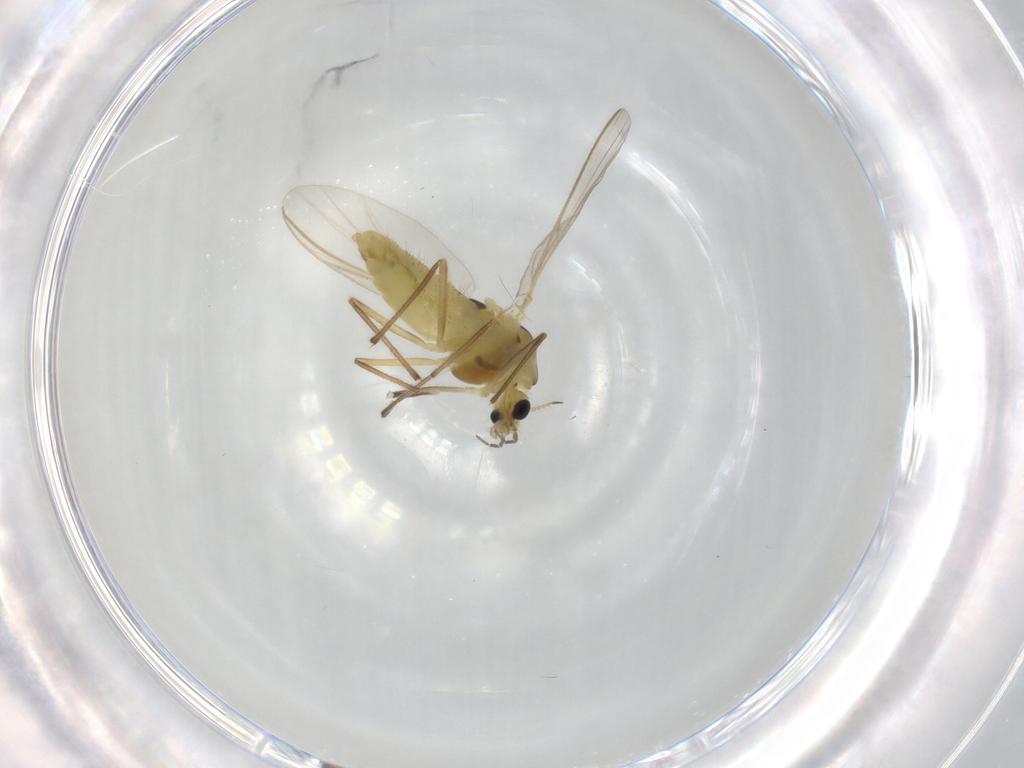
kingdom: Animalia
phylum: Arthropoda
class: Insecta
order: Diptera
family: Chironomidae
